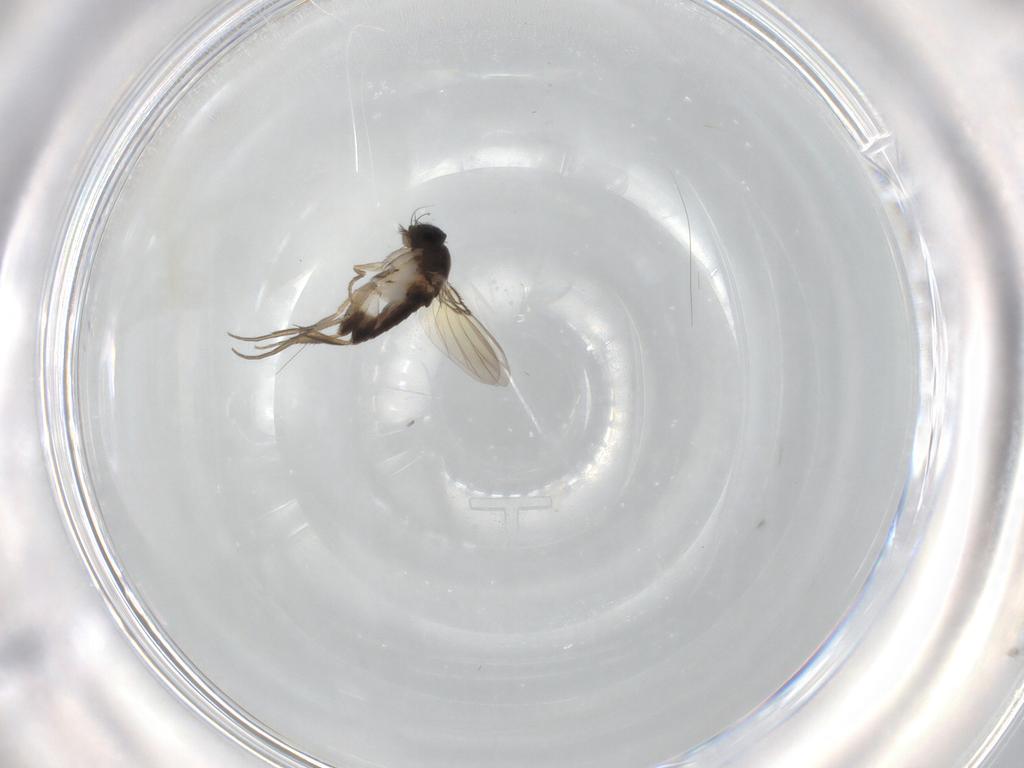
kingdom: Animalia
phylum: Arthropoda
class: Insecta
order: Diptera
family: Phoridae
